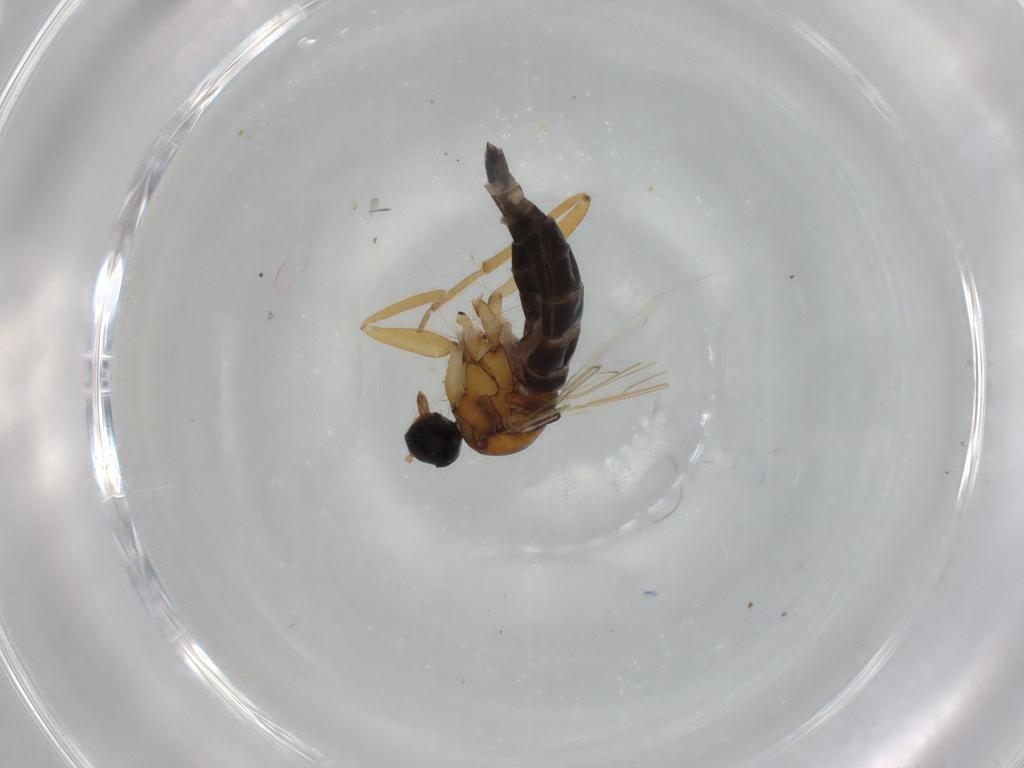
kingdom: Animalia
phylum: Arthropoda
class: Insecta
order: Diptera
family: Hybotidae
